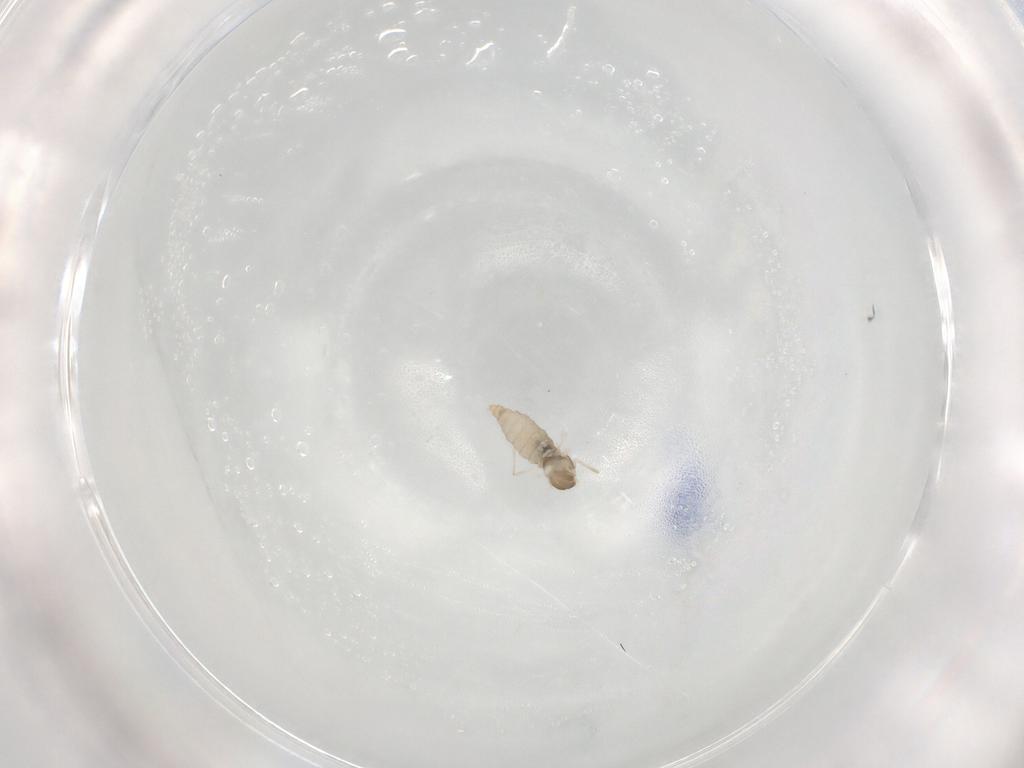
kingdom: Animalia
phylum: Arthropoda
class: Insecta
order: Diptera
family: Cecidomyiidae
